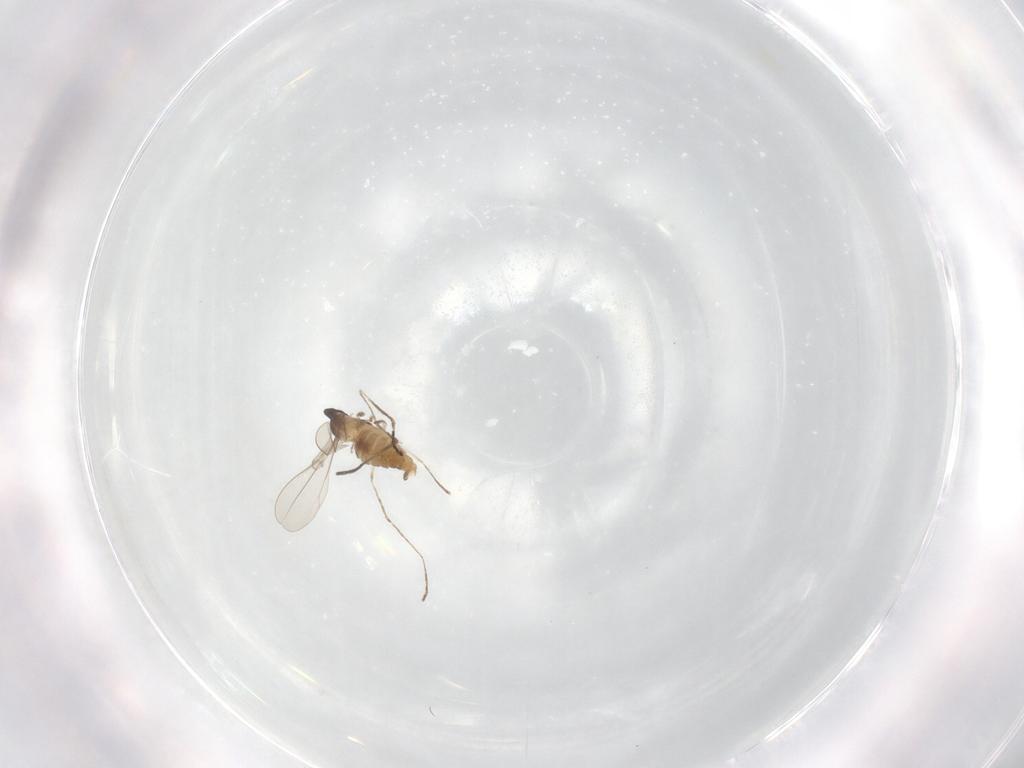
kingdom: Animalia
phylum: Arthropoda
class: Insecta
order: Diptera
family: Cecidomyiidae
